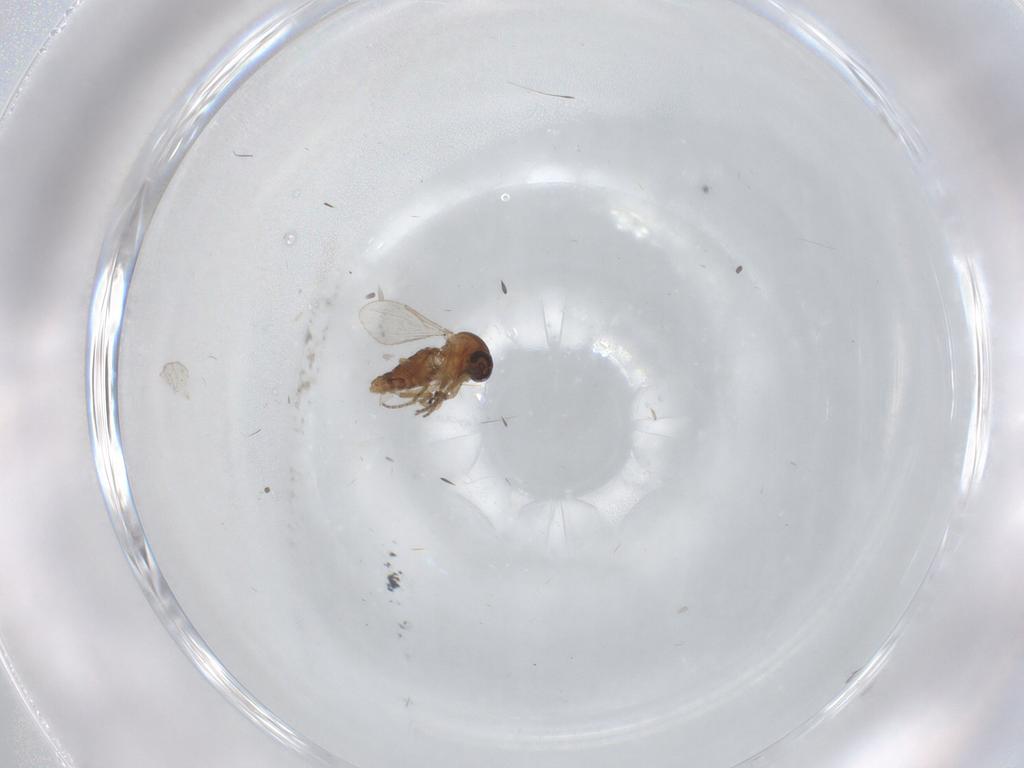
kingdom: Animalia
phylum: Arthropoda
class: Insecta
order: Diptera
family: Ceratopogonidae
